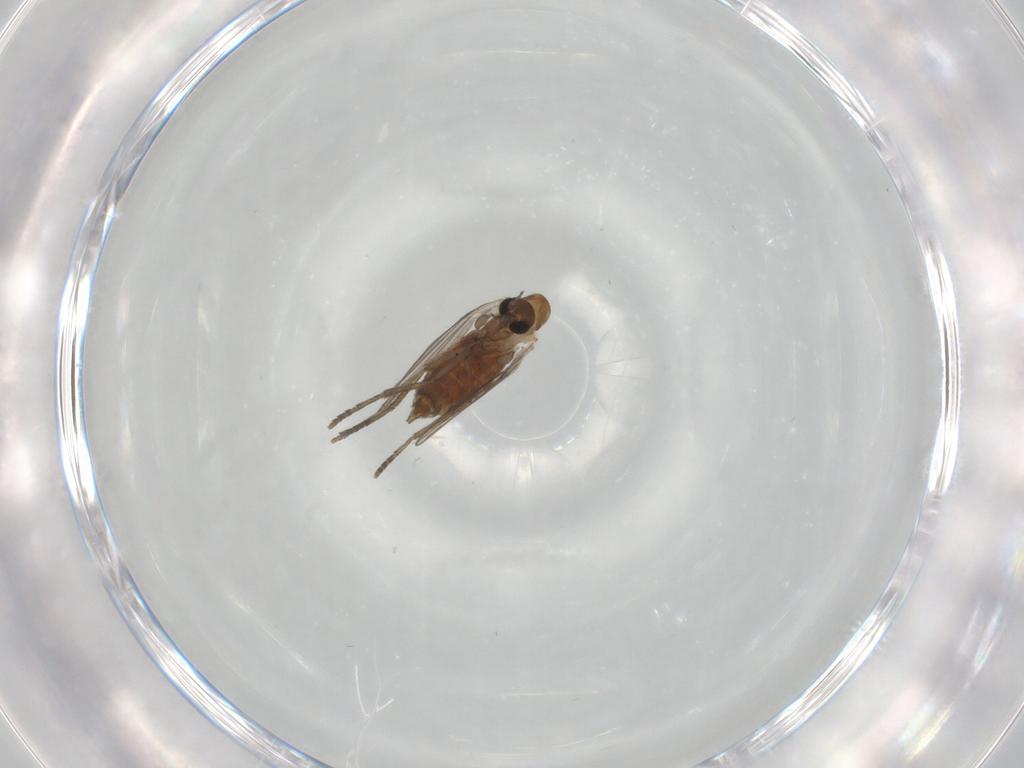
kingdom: Animalia
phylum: Arthropoda
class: Insecta
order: Diptera
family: Psychodidae
